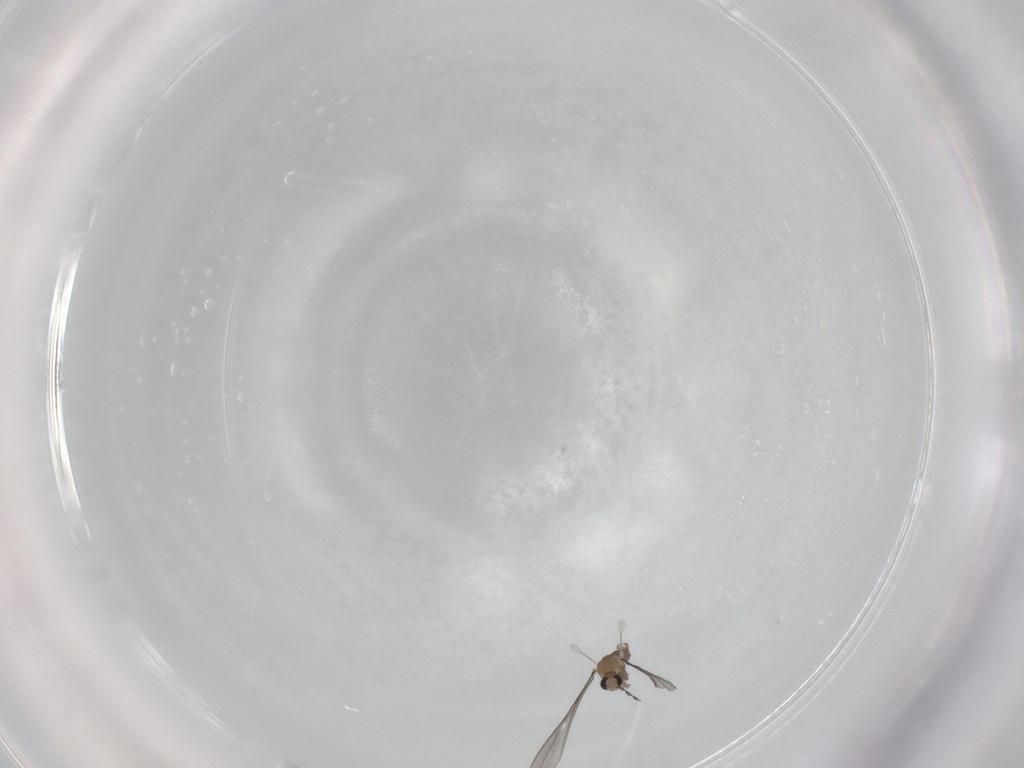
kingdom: Animalia
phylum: Arthropoda
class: Insecta
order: Diptera
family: Cecidomyiidae
